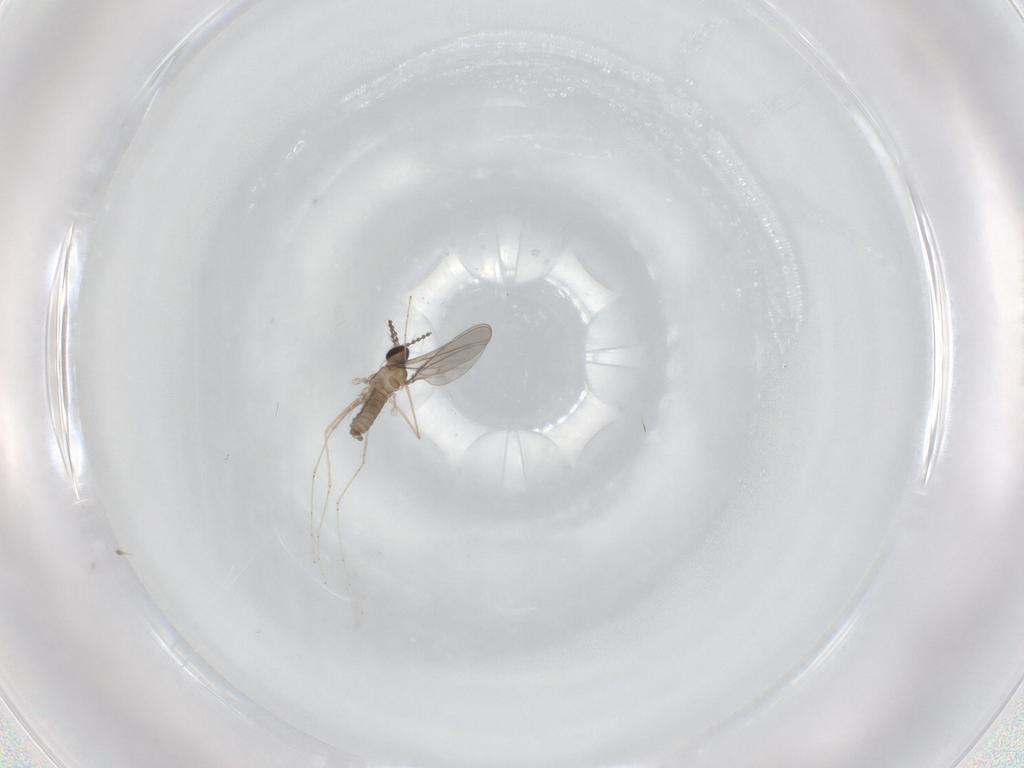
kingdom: Animalia
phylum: Arthropoda
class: Insecta
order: Diptera
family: Cecidomyiidae
